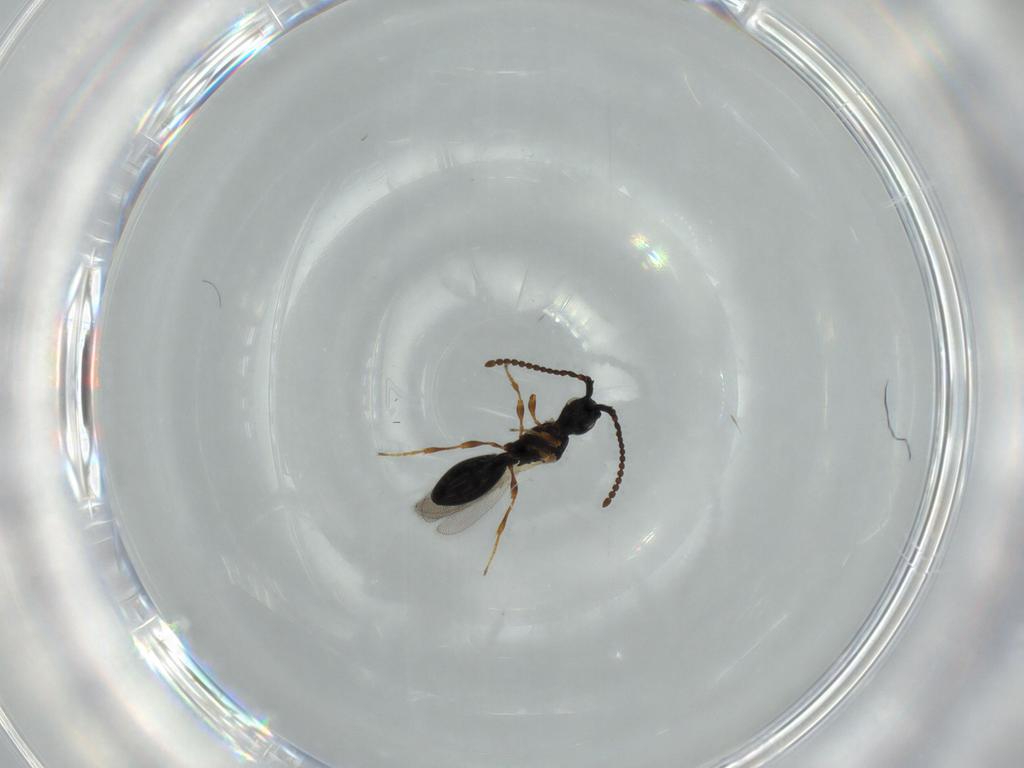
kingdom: Animalia
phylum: Arthropoda
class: Insecta
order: Hymenoptera
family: Diapriidae
